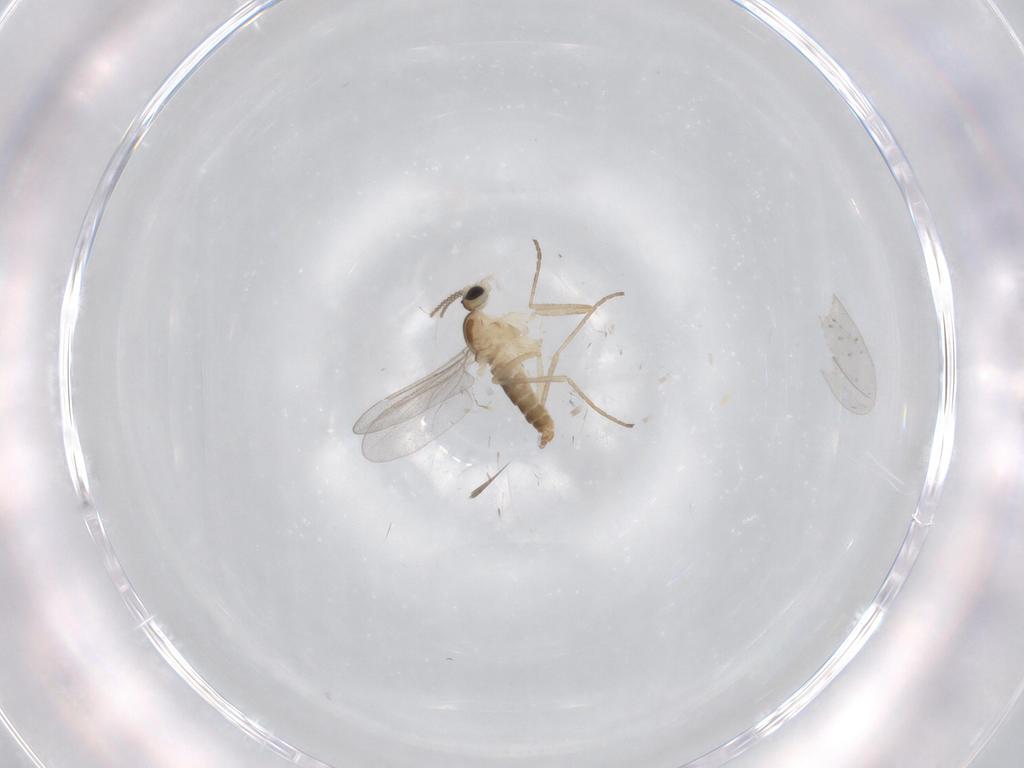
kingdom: Animalia
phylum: Arthropoda
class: Insecta
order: Diptera
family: Cecidomyiidae
